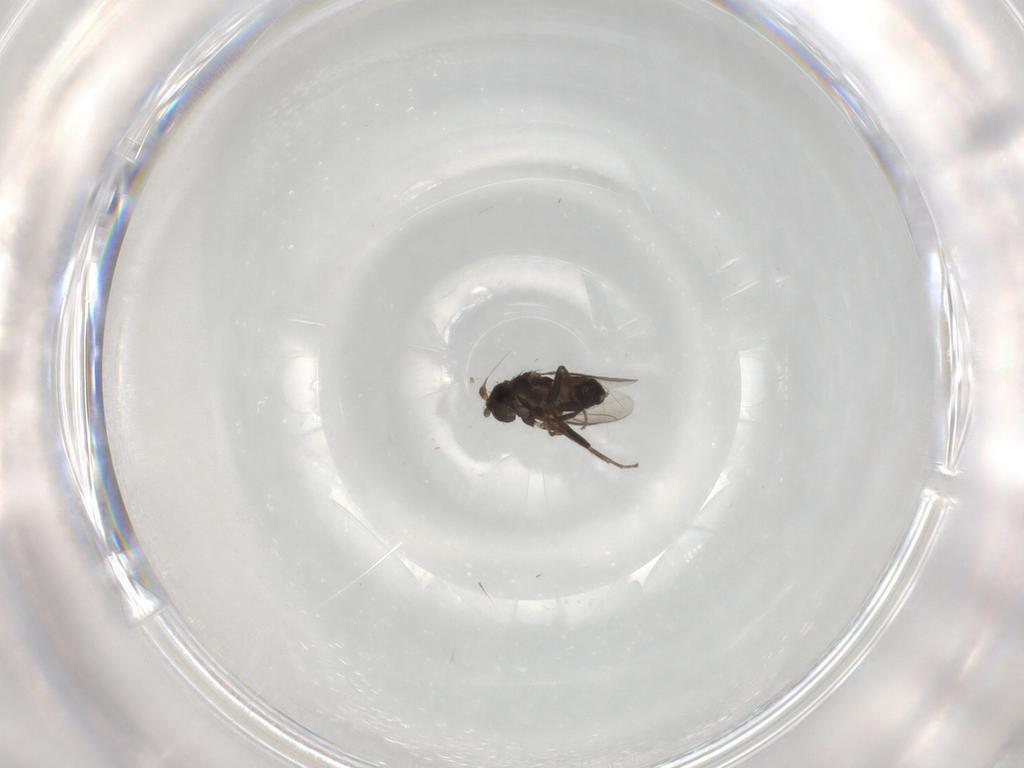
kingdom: Animalia
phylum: Arthropoda
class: Insecta
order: Diptera
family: Sphaeroceridae
